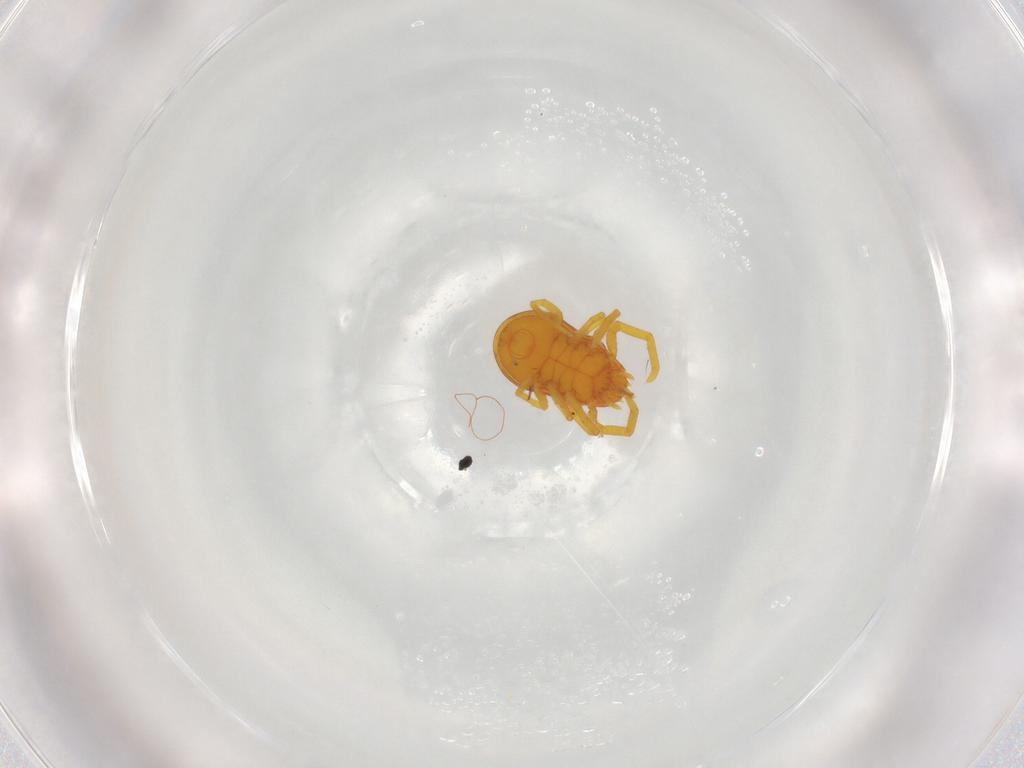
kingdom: Animalia
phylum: Arthropoda
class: Arachnida
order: Trombidiformes
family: Labidostommidae
